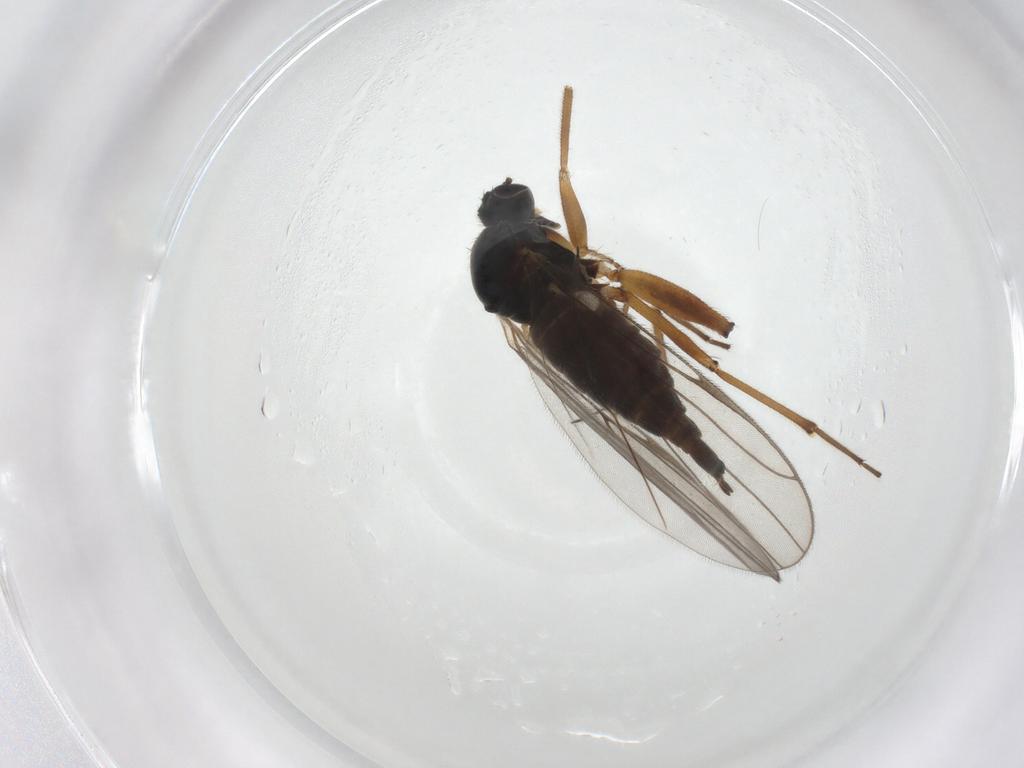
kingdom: Animalia
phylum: Arthropoda
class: Insecta
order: Diptera
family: Hybotidae
